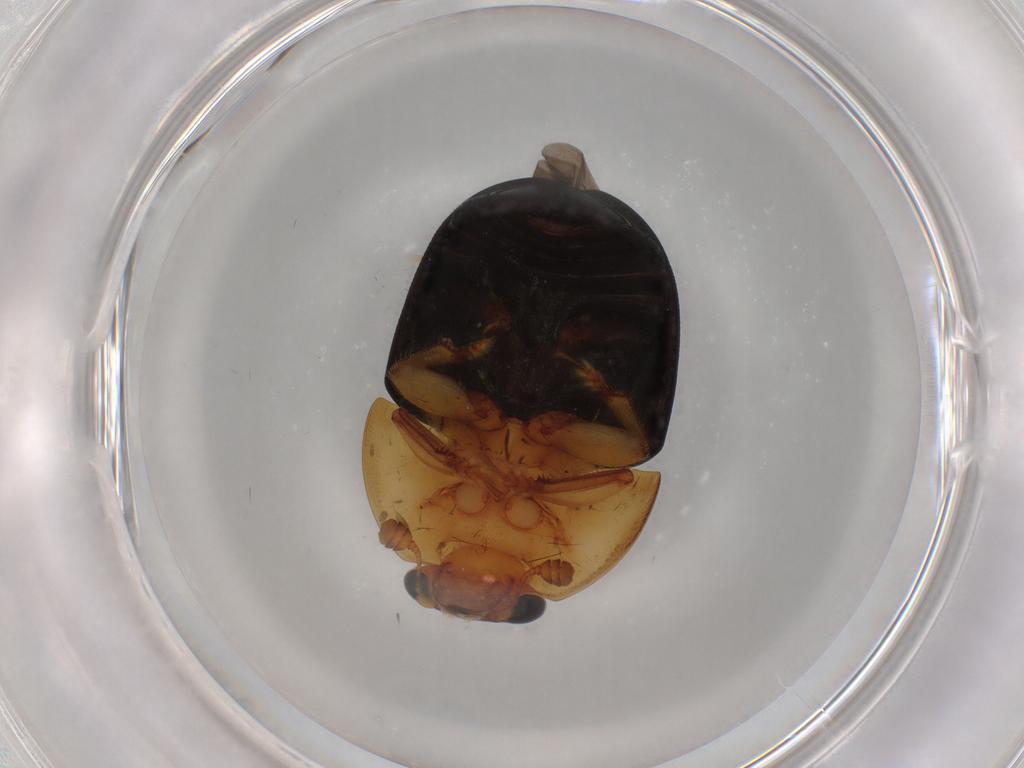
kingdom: Animalia
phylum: Arthropoda
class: Insecta
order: Coleoptera
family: Nitidulidae
